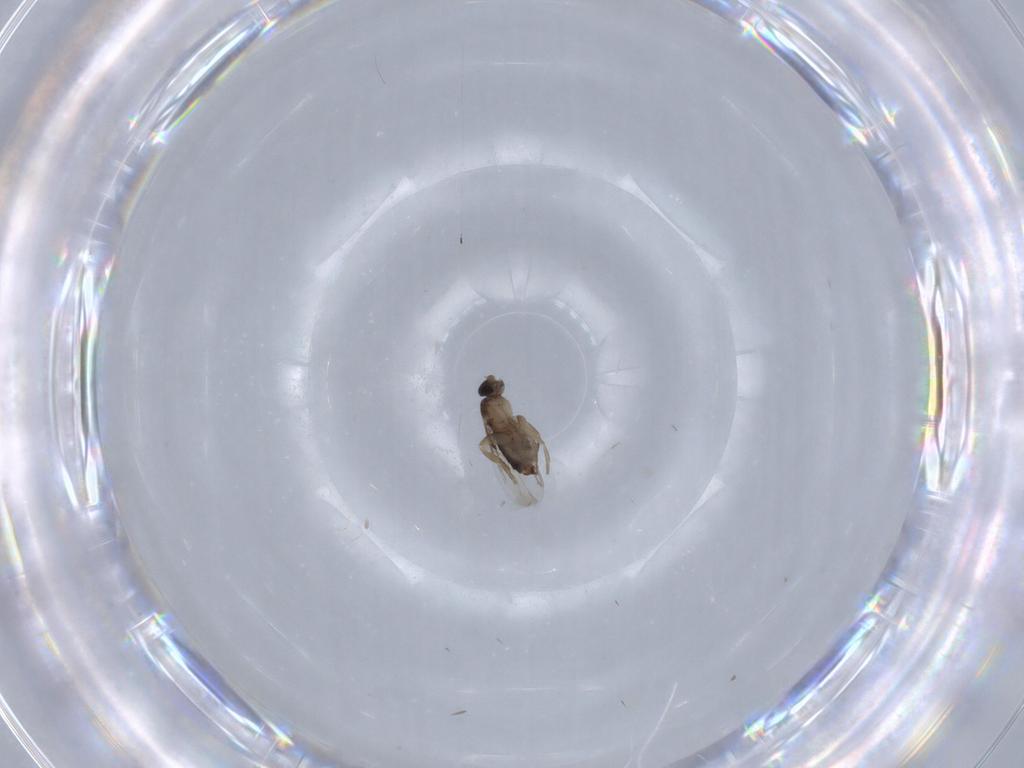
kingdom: Animalia
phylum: Arthropoda
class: Insecta
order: Diptera
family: Phoridae
